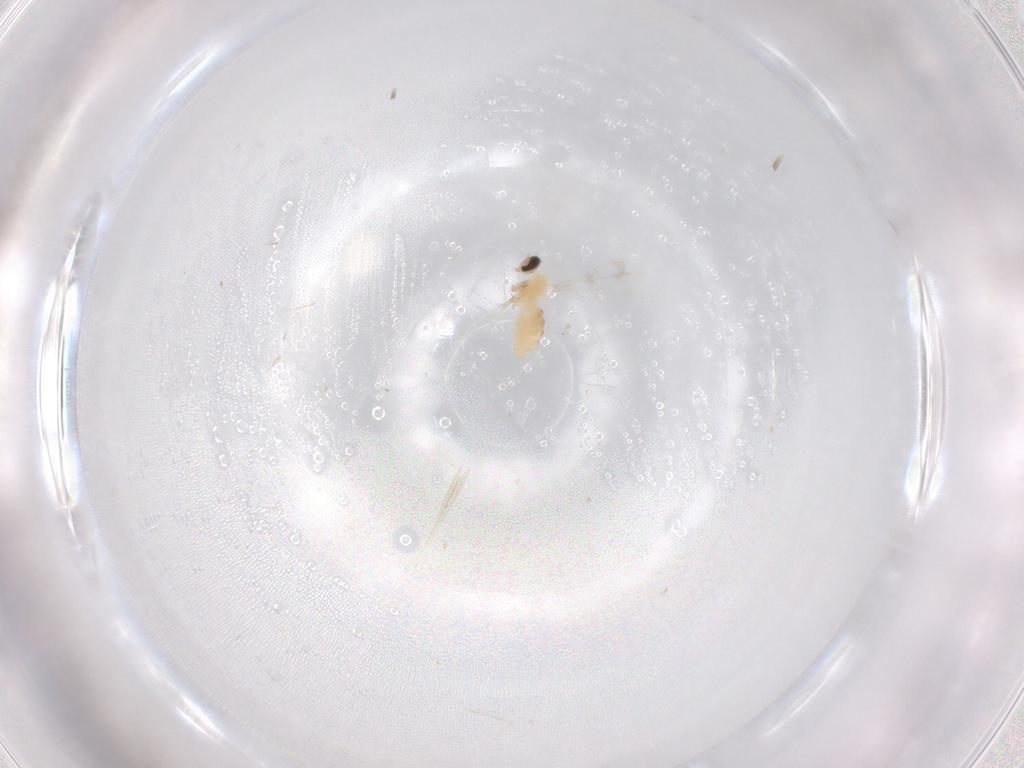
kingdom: Animalia
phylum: Arthropoda
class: Insecta
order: Diptera
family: Cecidomyiidae
